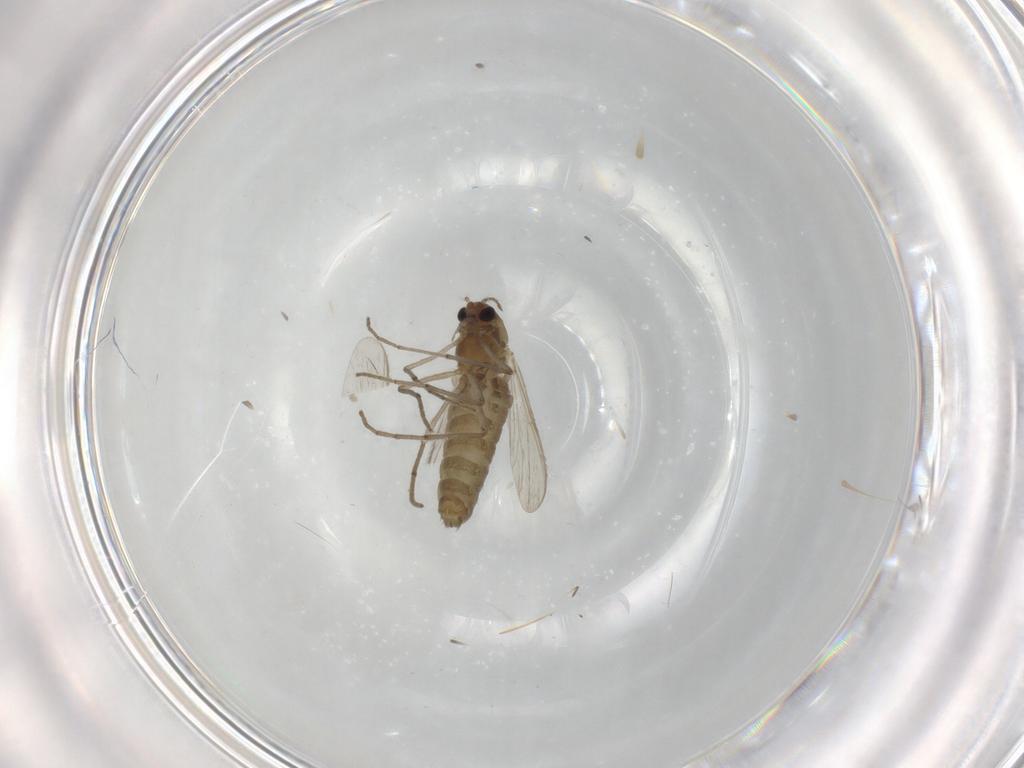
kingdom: Animalia
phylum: Arthropoda
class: Insecta
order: Diptera
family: Chironomidae
